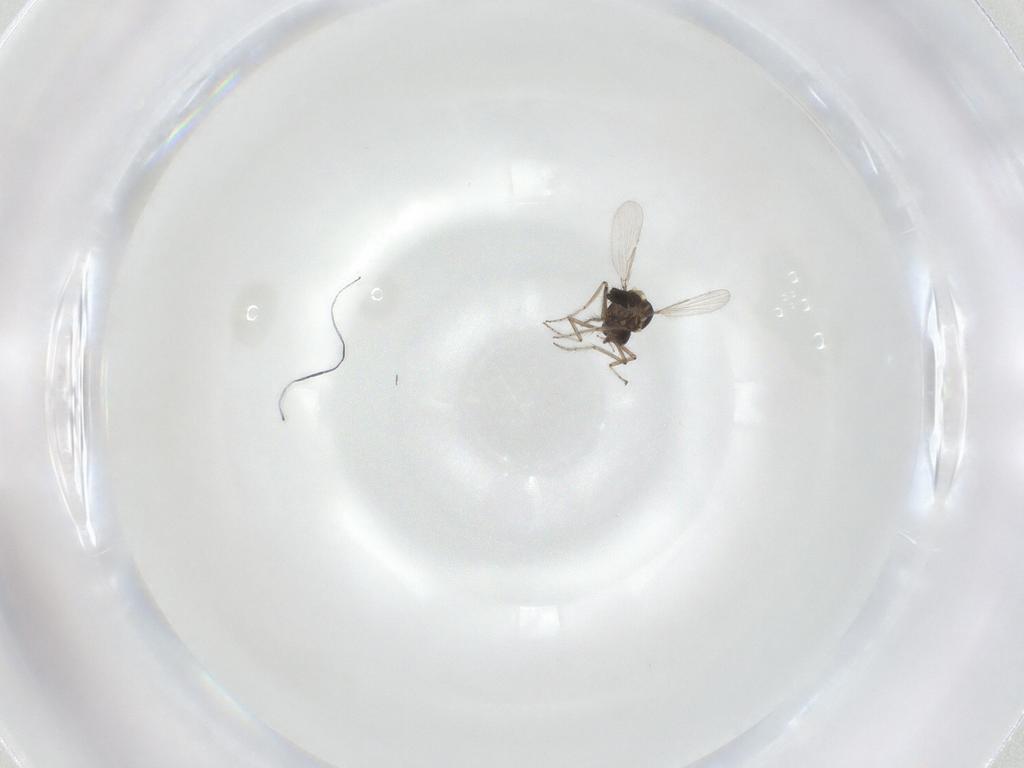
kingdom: Animalia
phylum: Arthropoda
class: Insecta
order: Diptera
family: Ceratopogonidae
